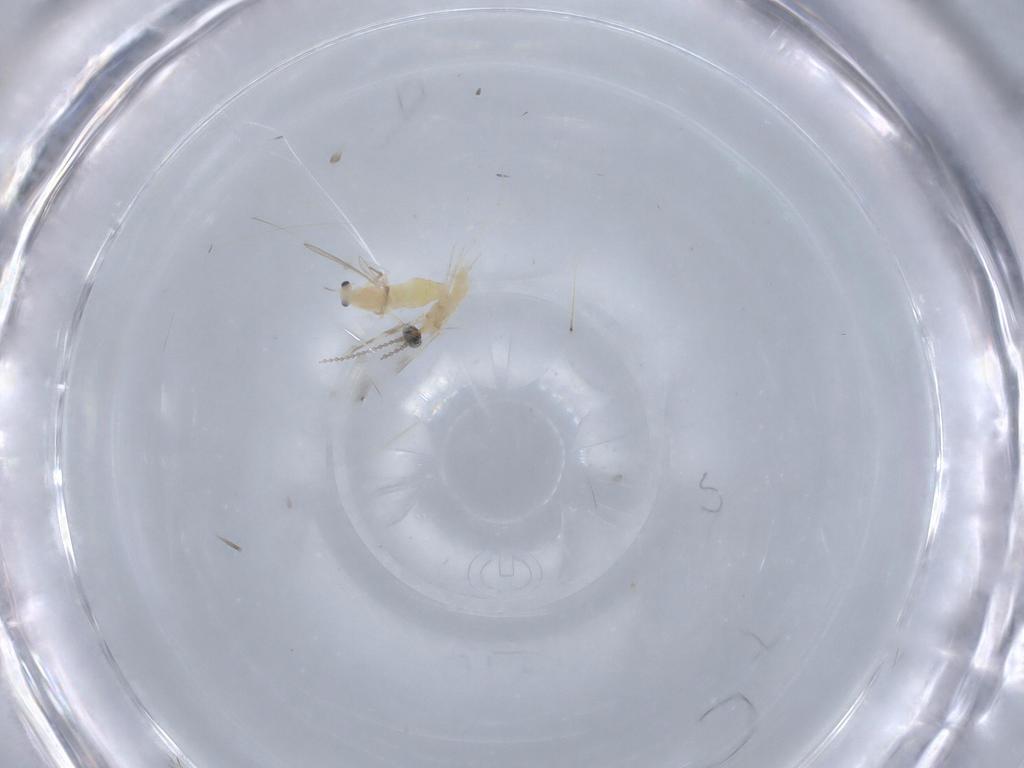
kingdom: Animalia
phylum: Arthropoda
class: Insecta
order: Diptera
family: Cecidomyiidae
